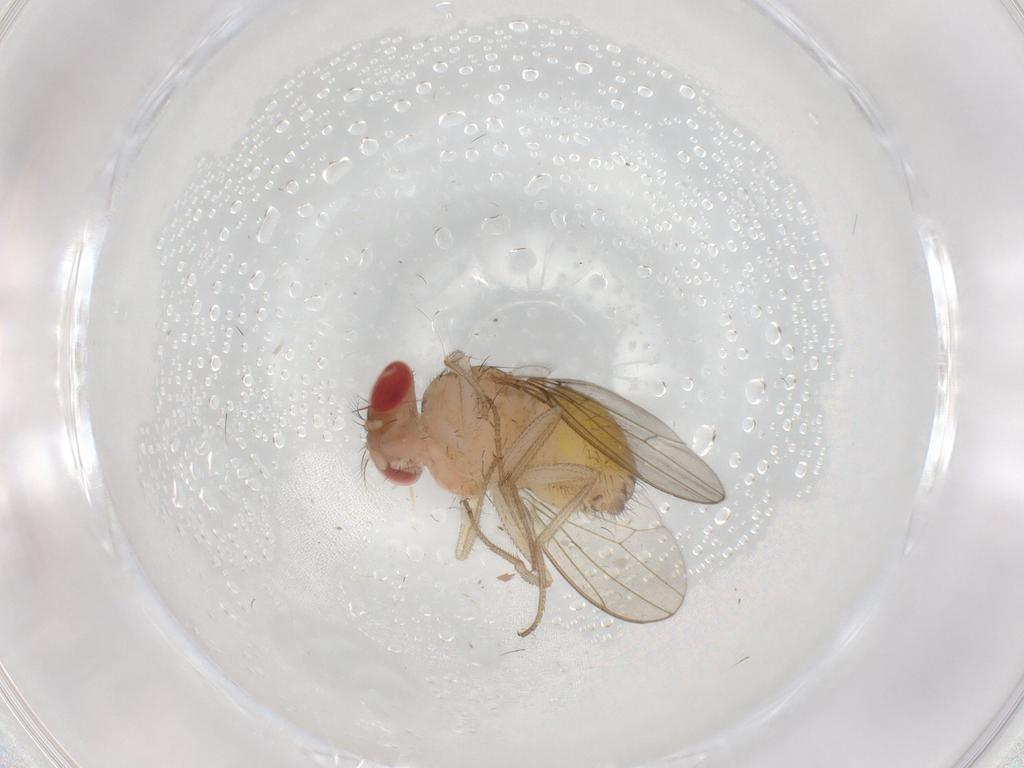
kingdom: Animalia
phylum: Arthropoda
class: Insecta
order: Diptera
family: Drosophilidae
